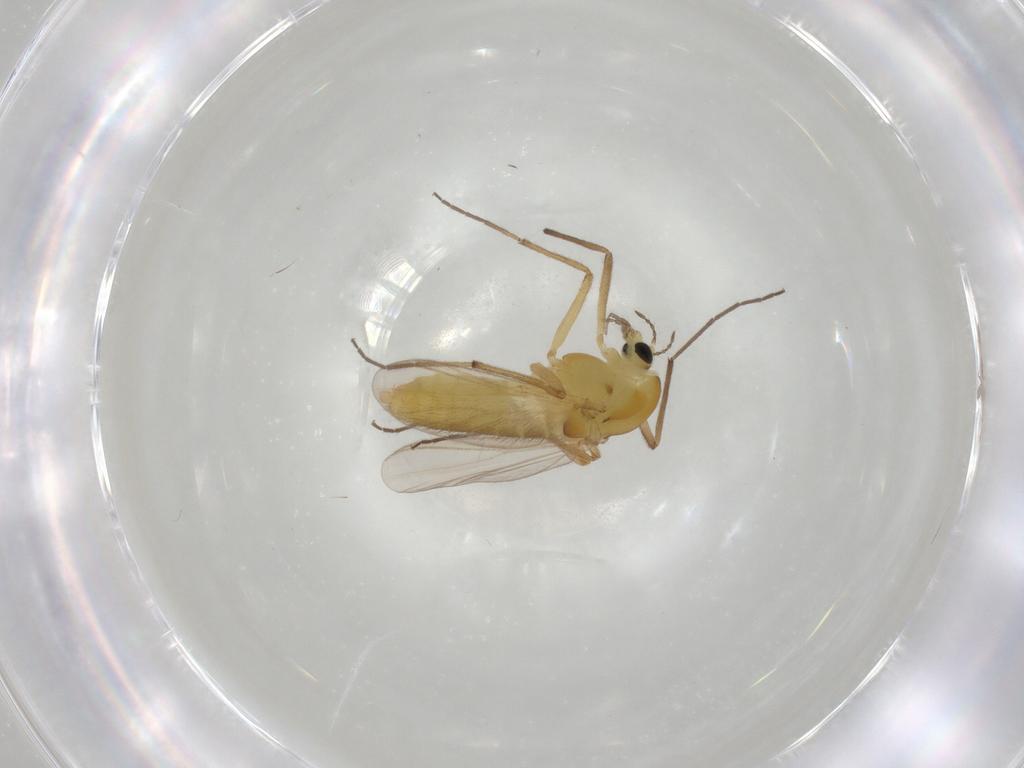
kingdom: Animalia
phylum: Arthropoda
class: Insecta
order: Diptera
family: Chironomidae
